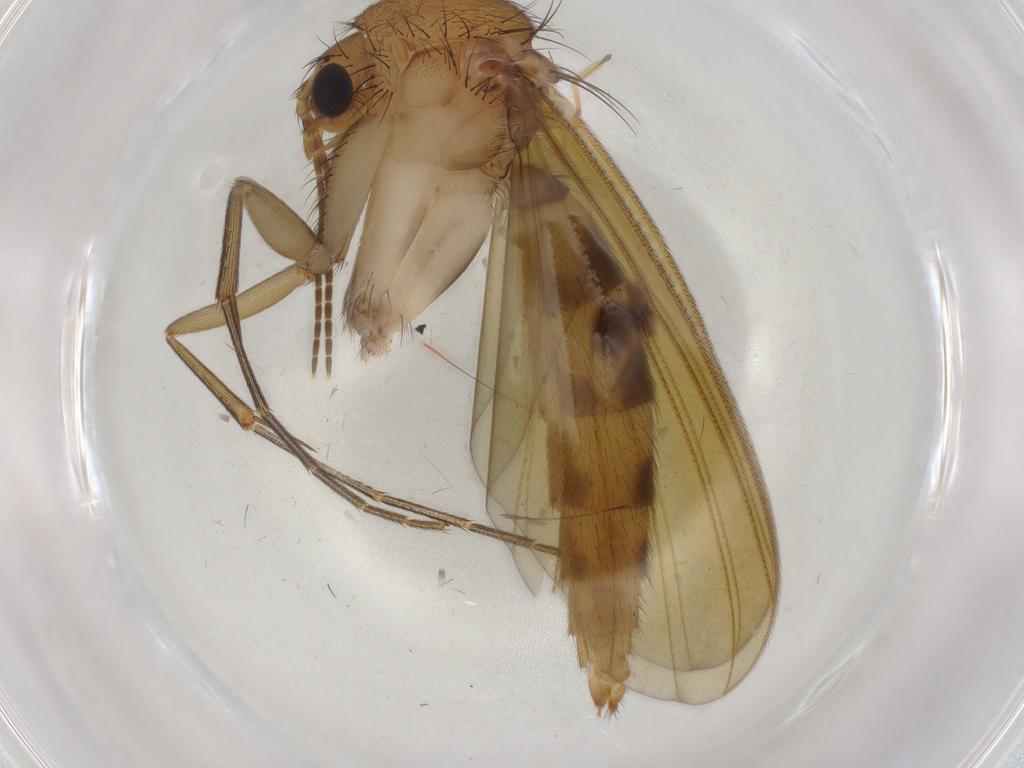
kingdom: Animalia
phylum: Arthropoda
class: Insecta
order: Diptera
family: Mycetophilidae
